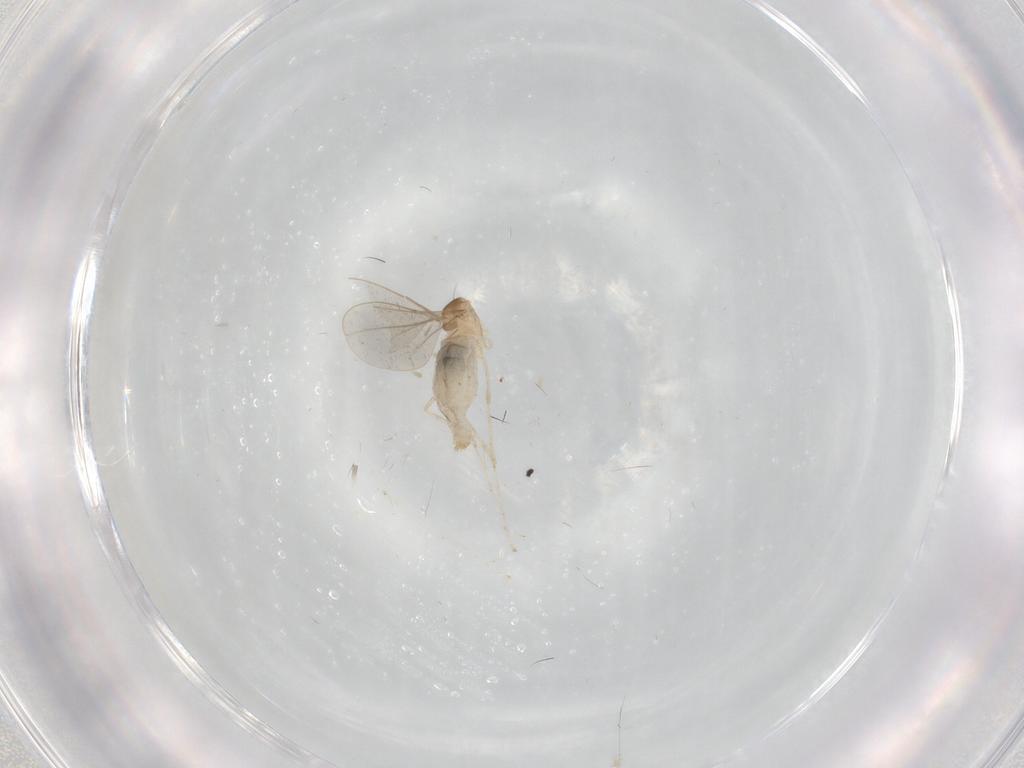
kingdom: Animalia
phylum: Arthropoda
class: Insecta
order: Diptera
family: Cecidomyiidae
